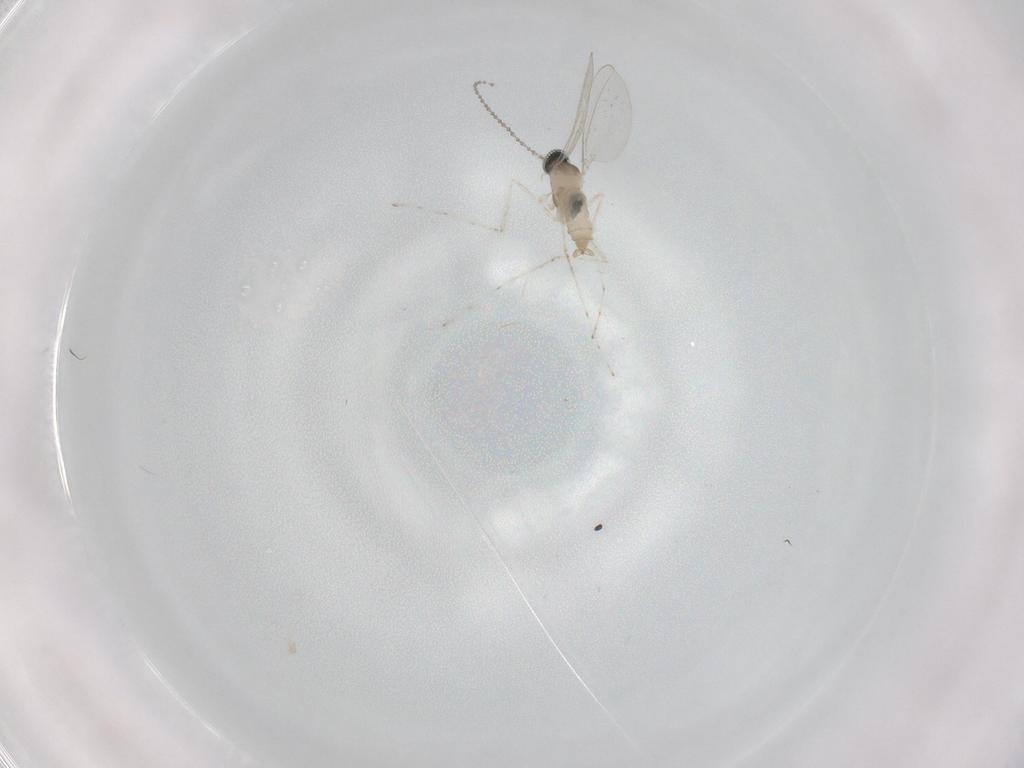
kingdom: Animalia
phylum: Arthropoda
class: Insecta
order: Diptera
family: Cecidomyiidae
